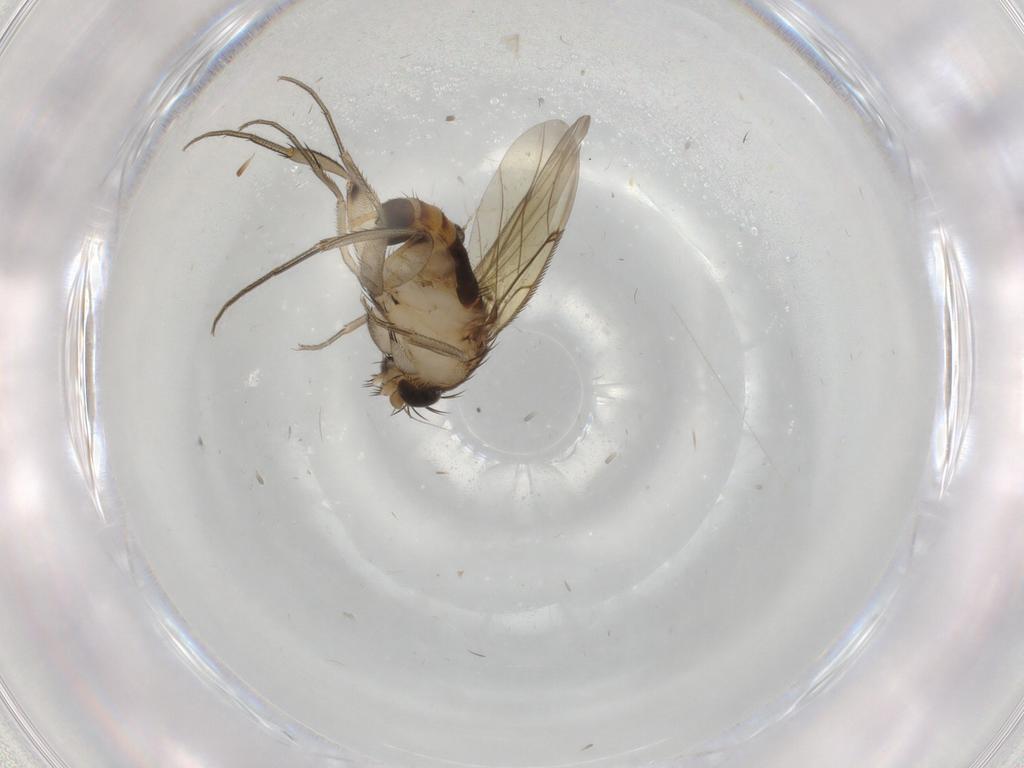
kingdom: Animalia
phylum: Arthropoda
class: Insecta
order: Diptera
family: Phoridae
